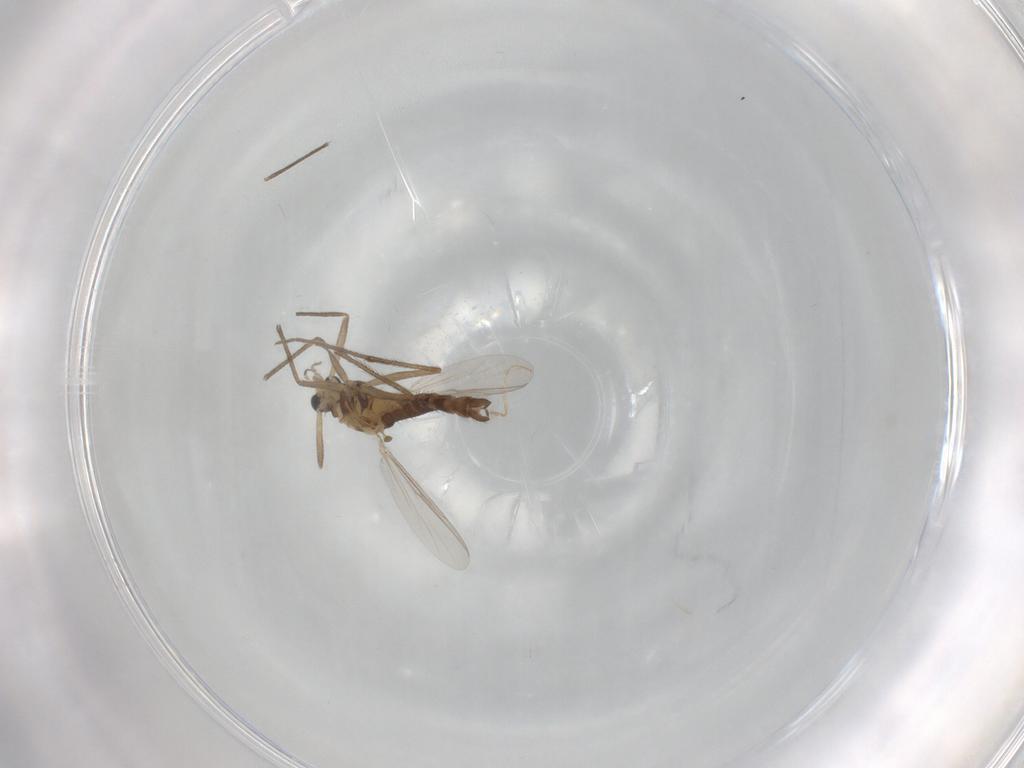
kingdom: Animalia
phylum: Arthropoda
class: Insecta
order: Diptera
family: Chironomidae
